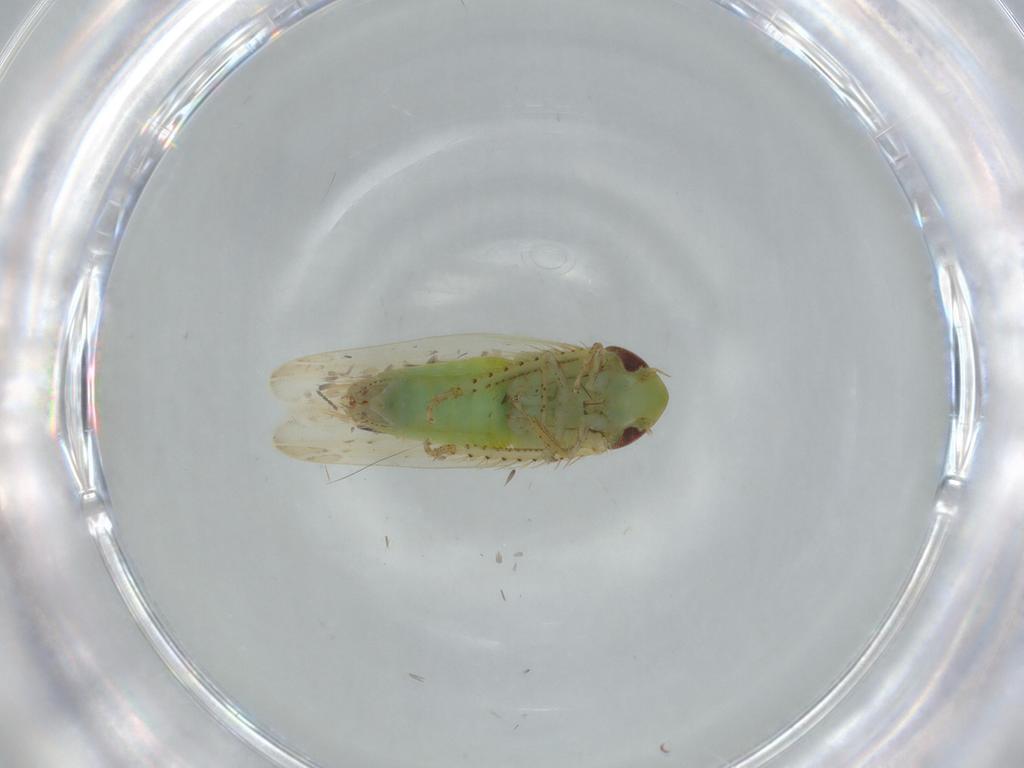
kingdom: Animalia
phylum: Arthropoda
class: Insecta
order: Hemiptera
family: Cicadellidae
